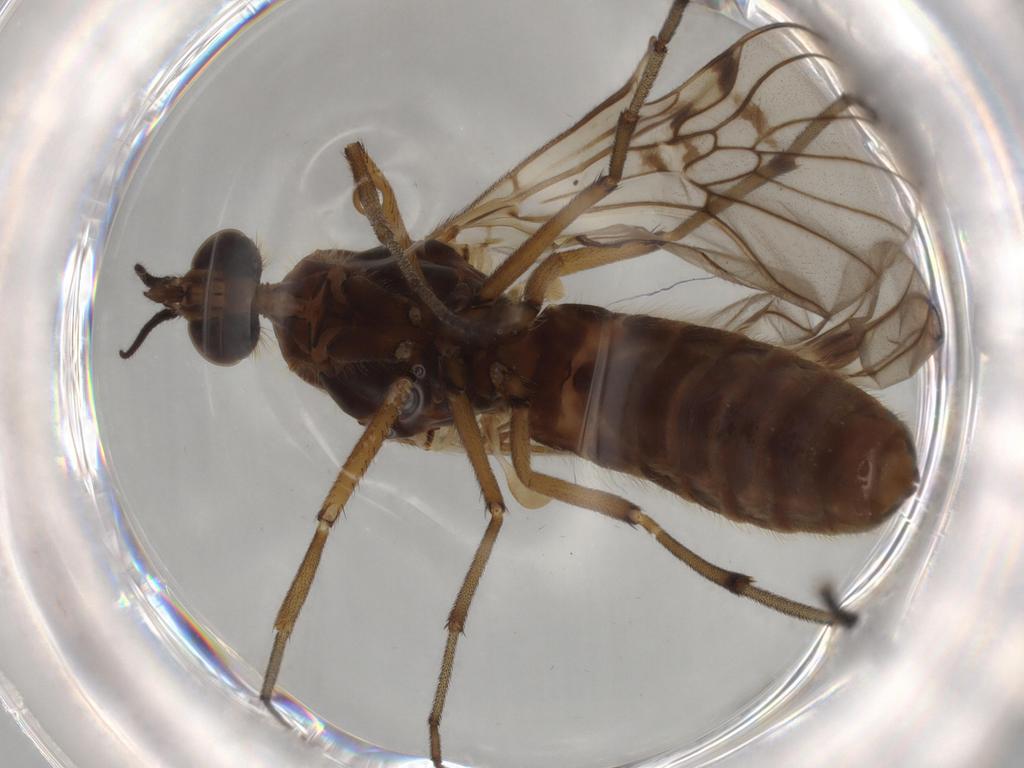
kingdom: Animalia
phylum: Arthropoda
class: Insecta
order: Diptera
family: Anisopodidae
